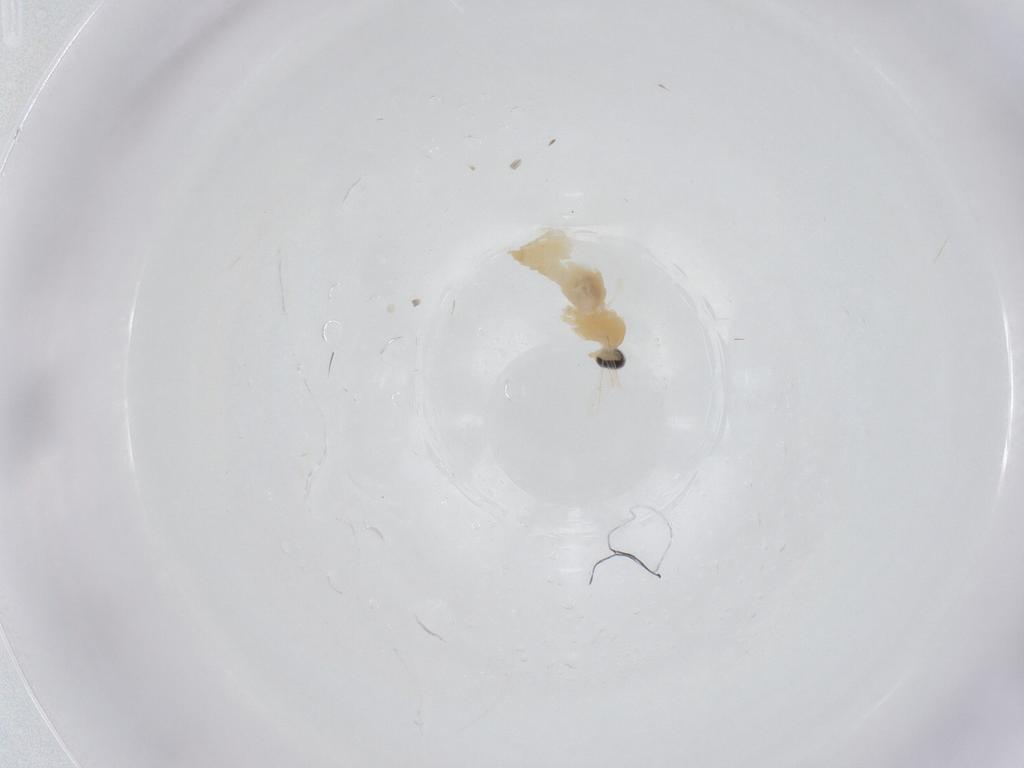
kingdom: Animalia
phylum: Arthropoda
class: Insecta
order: Diptera
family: Cecidomyiidae
